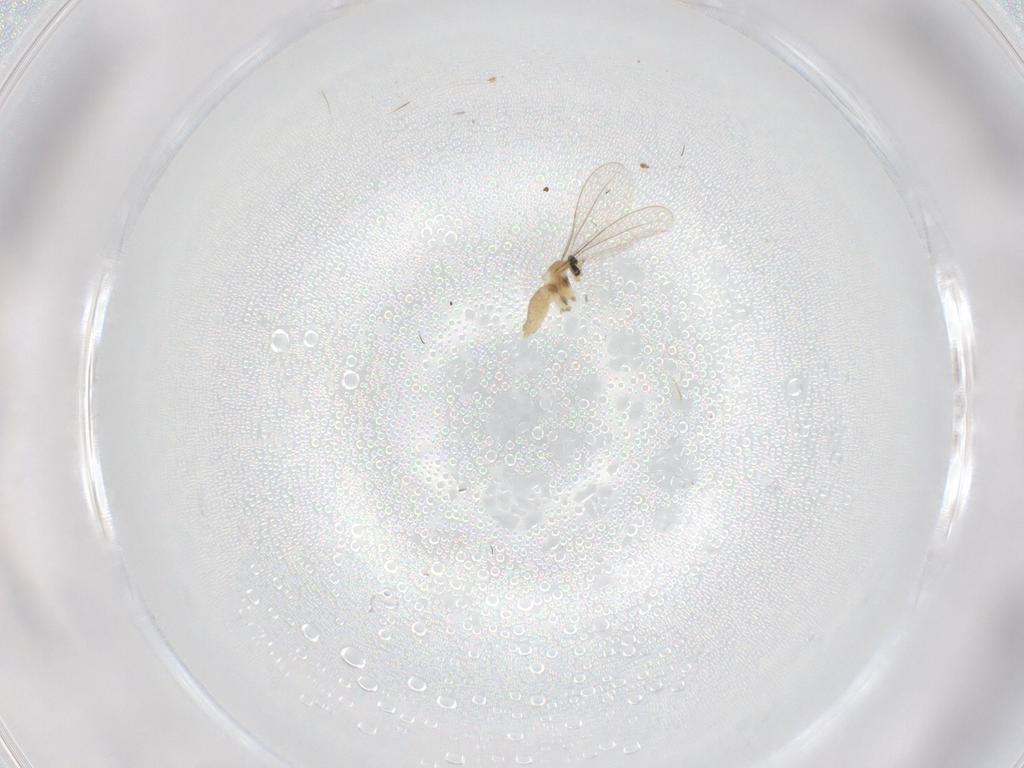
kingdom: Animalia
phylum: Arthropoda
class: Insecta
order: Diptera
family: Cecidomyiidae
